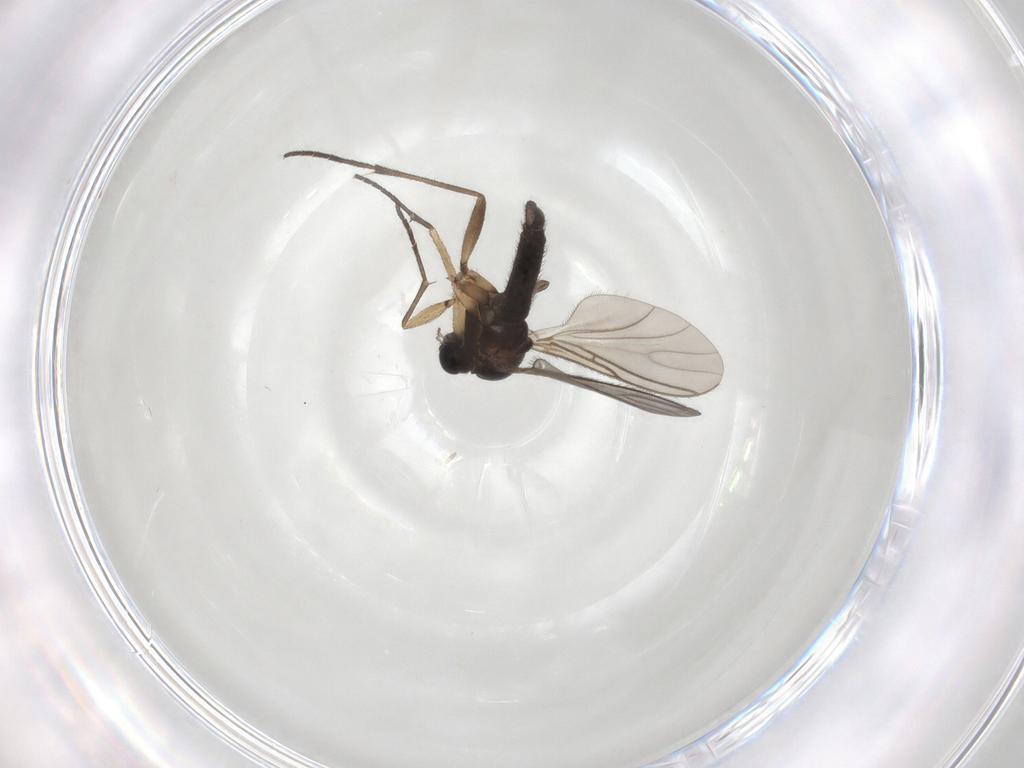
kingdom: Animalia
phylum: Arthropoda
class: Insecta
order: Diptera
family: Sciaridae
